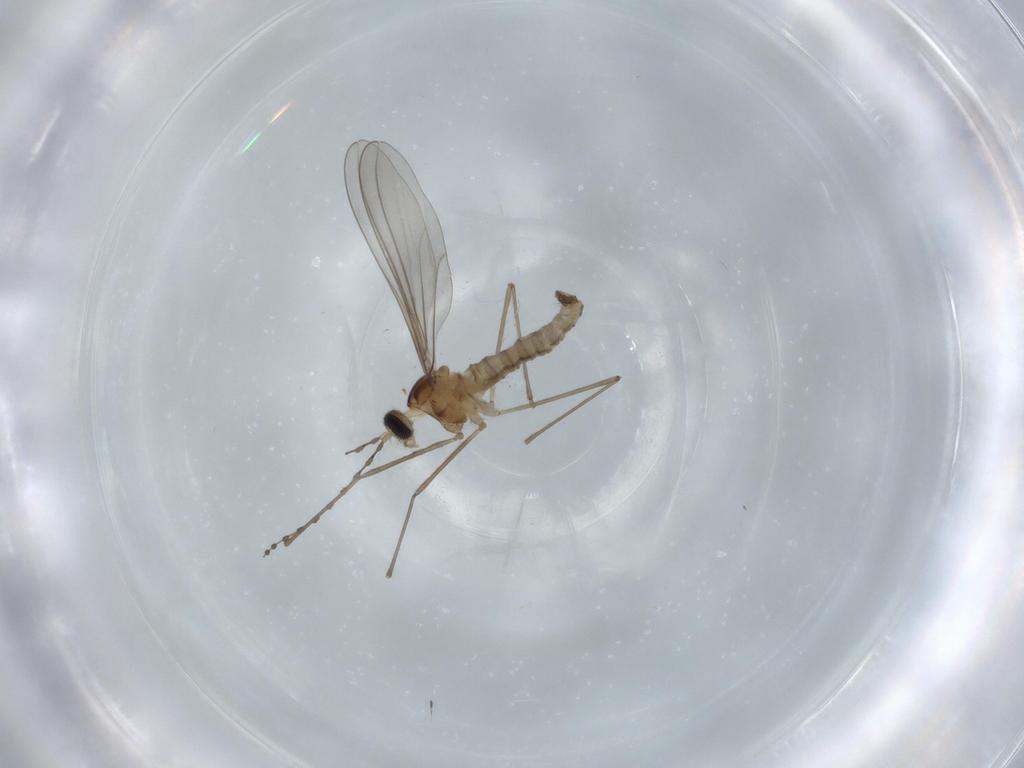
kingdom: Animalia
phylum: Arthropoda
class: Insecta
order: Diptera
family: Cecidomyiidae
